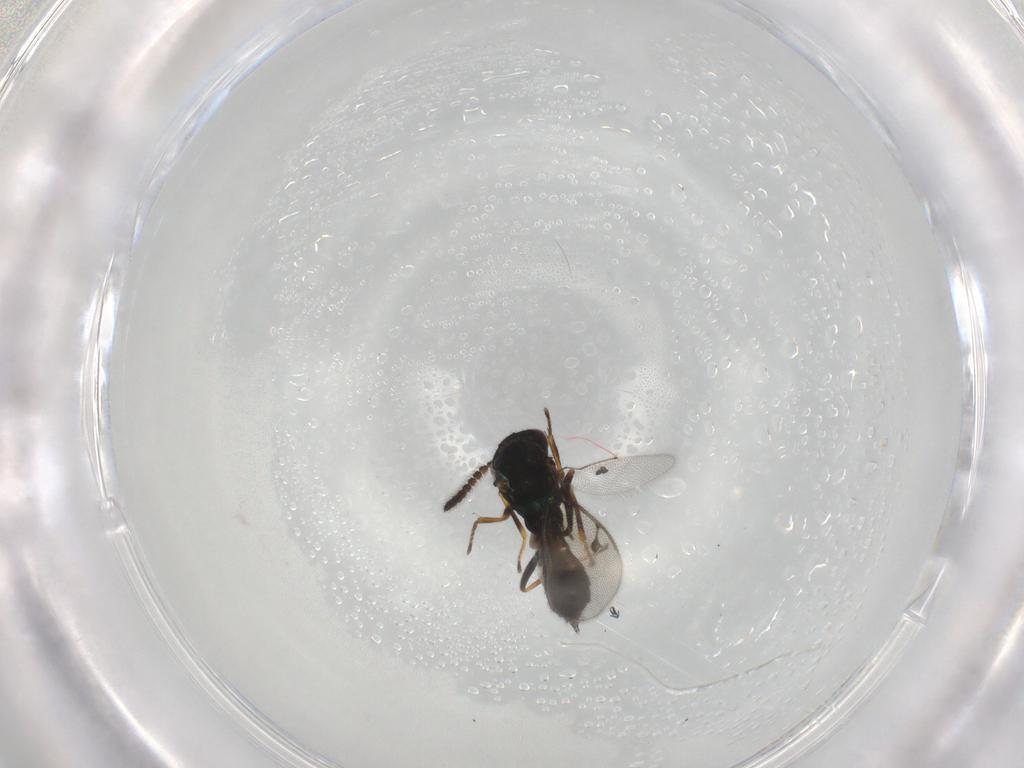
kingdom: Animalia
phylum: Arthropoda
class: Insecta
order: Hymenoptera
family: Pirenidae
